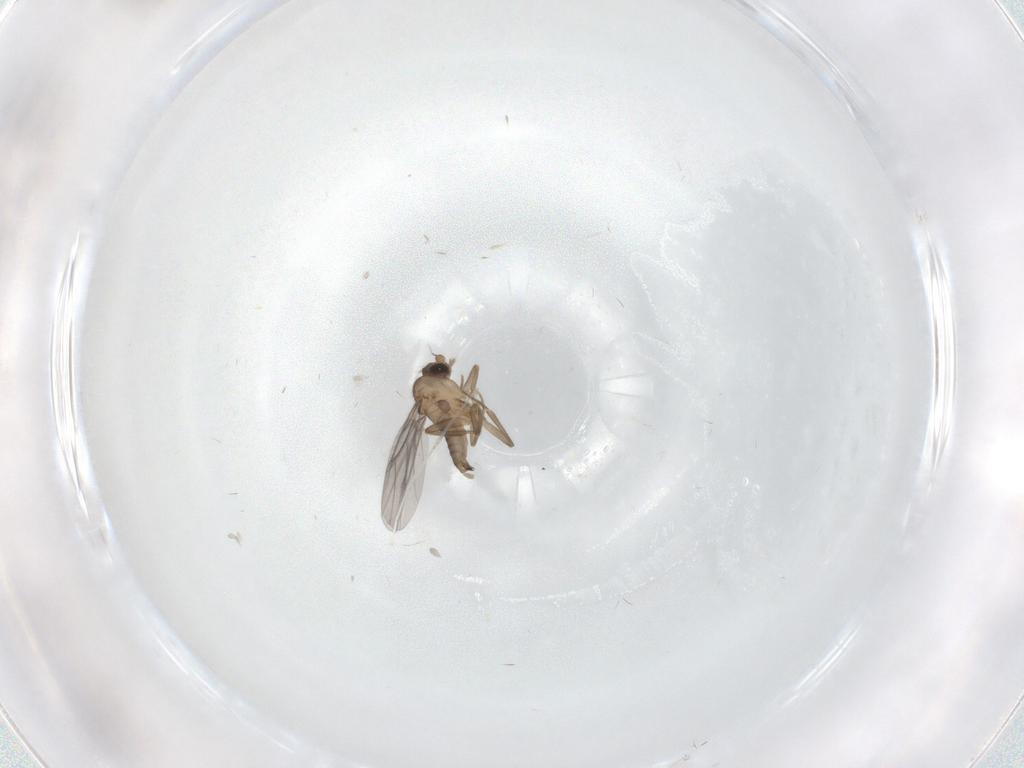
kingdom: Animalia
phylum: Arthropoda
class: Insecta
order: Diptera
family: Cecidomyiidae
